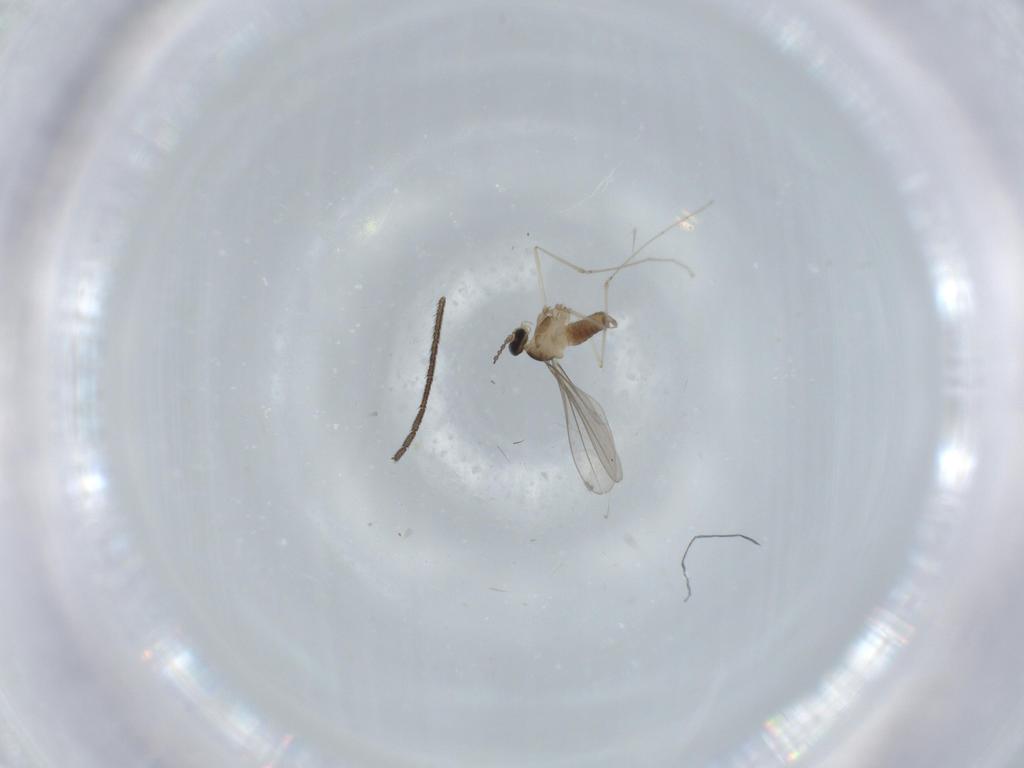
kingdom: Animalia
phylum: Arthropoda
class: Insecta
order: Diptera
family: Cecidomyiidae
